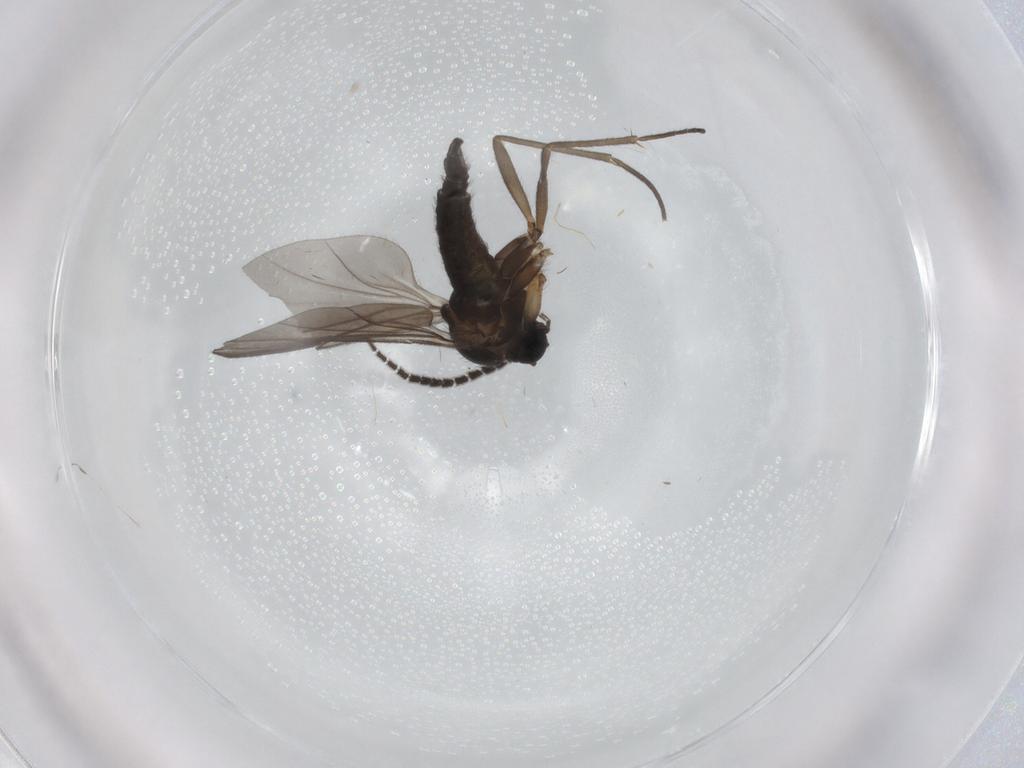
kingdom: Animalia
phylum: Arthropoda
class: Insecta
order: Diptera
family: Sciaridae
